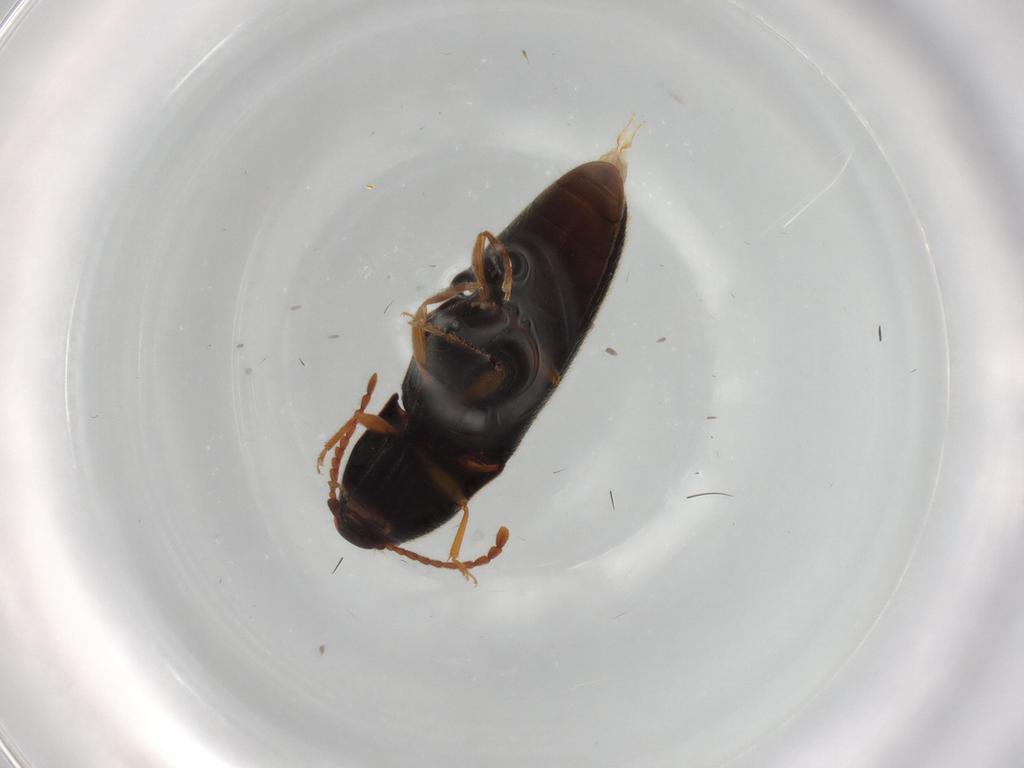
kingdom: Animalia
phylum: Arthropoda
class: Insecta
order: Coleoptera
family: Elateridae
